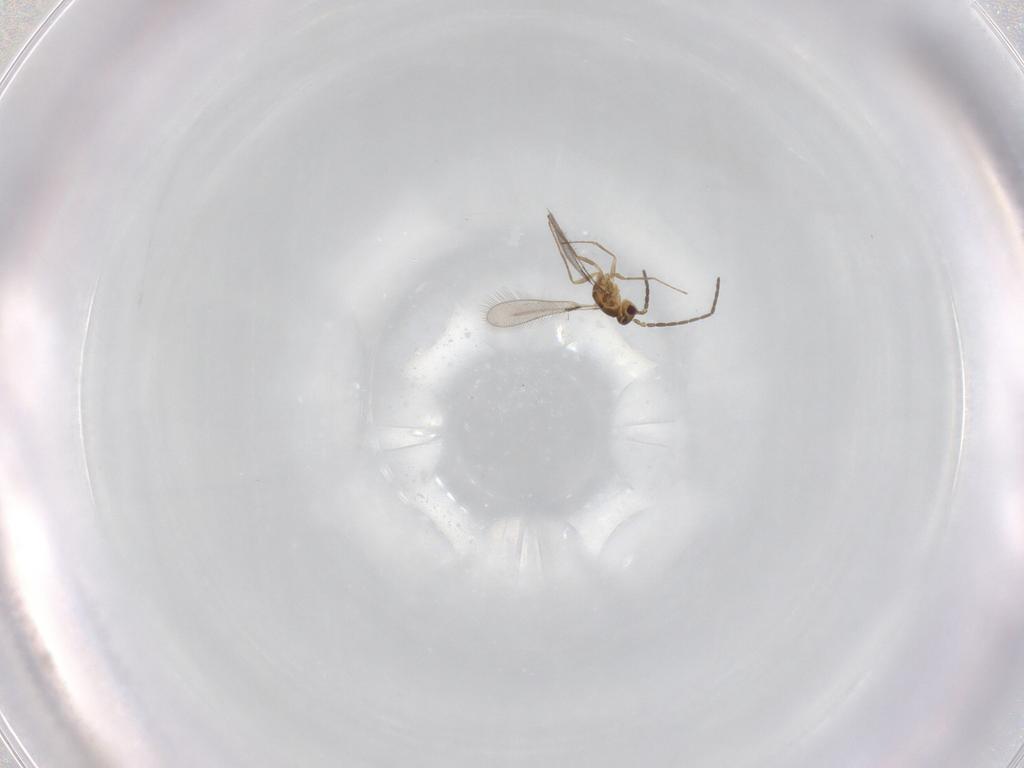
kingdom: Animalia
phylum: Arthropoda
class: Insecta
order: Hymenoptera
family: Mymaridae
